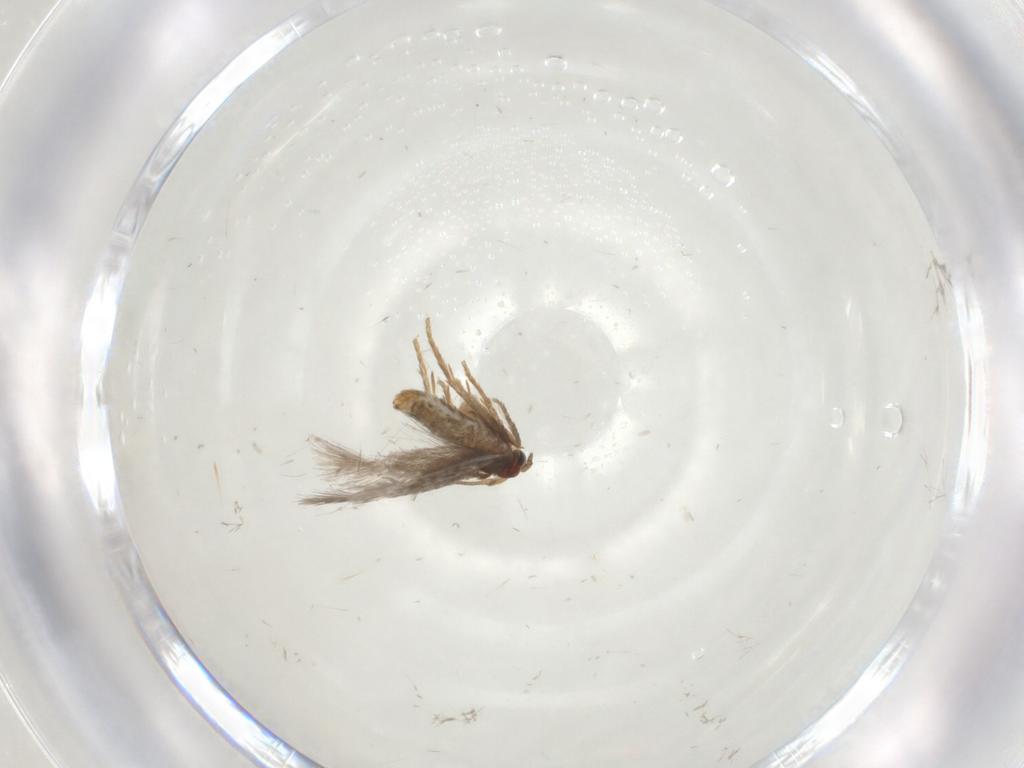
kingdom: Animalia
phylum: Arthropoda
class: Insecta
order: Lepidoptera
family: Nepticulidae
